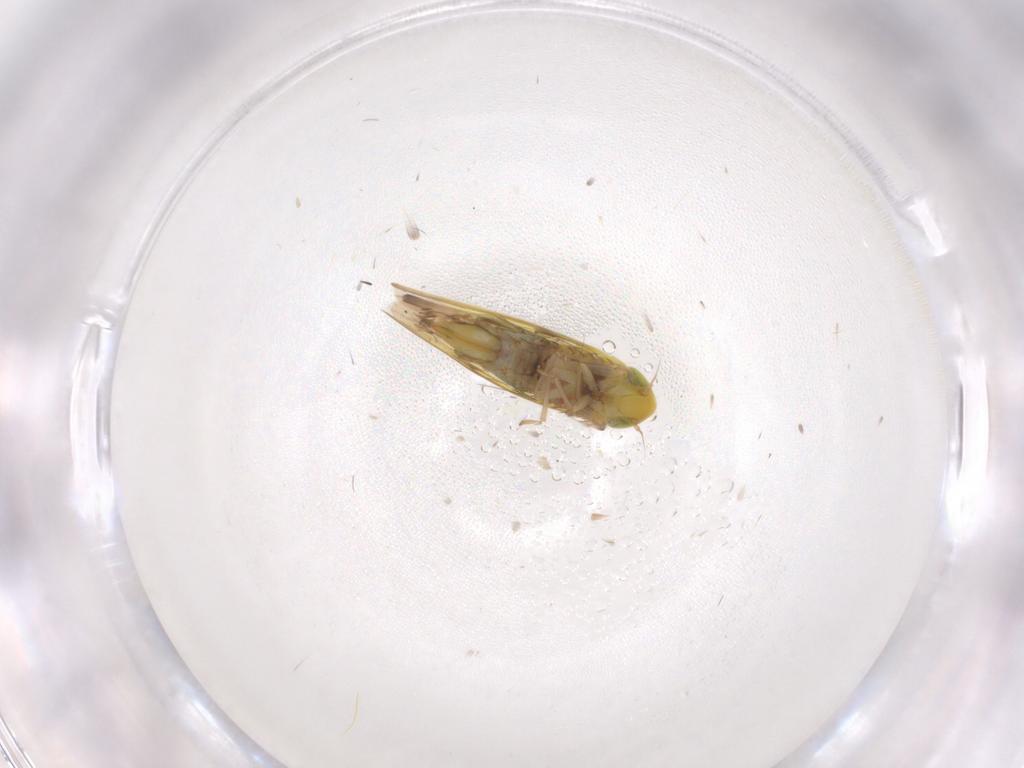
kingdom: Animalia
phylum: Arthropoda
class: Insecta
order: Hemiptera
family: Cicadellidae
